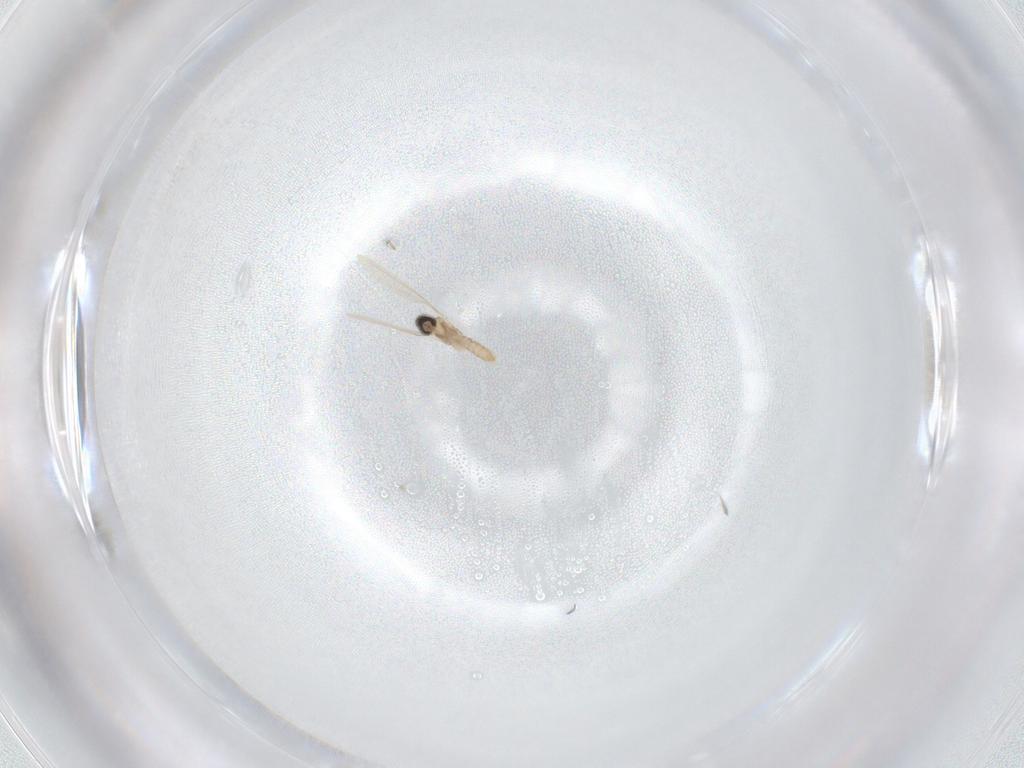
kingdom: Animalia
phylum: Arthropoda
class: Insecta
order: Diptera
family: Cecidomyiidae
